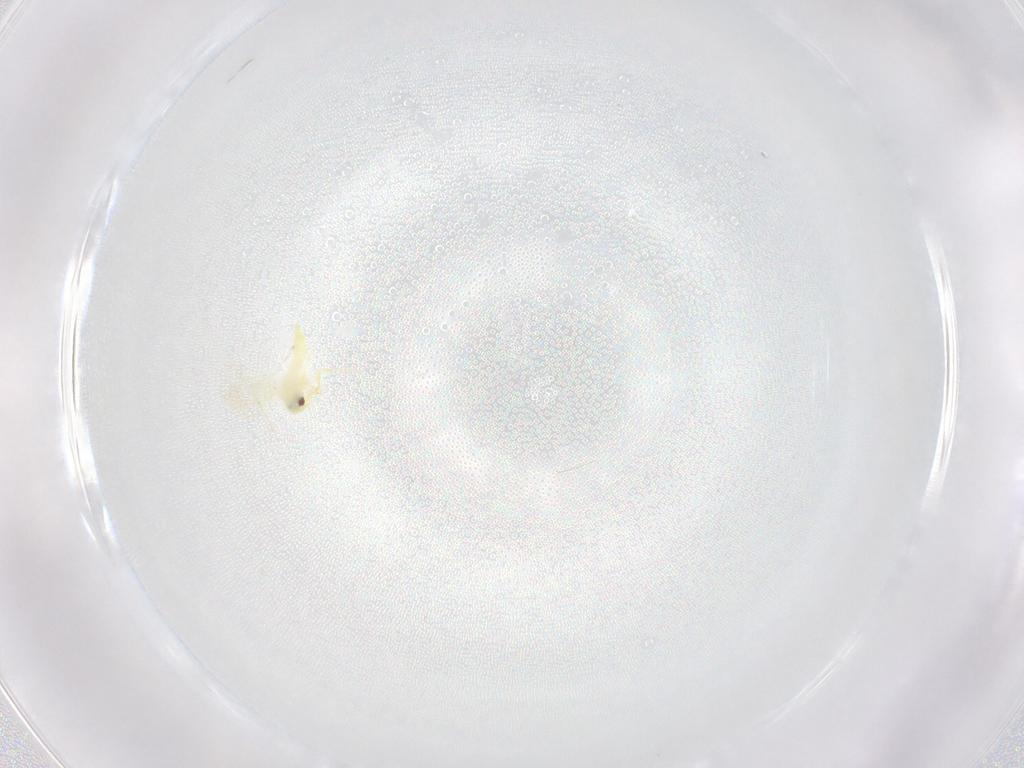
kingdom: Animalia
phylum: Arthropoda
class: Insecta
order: Hemiptera
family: Aleyrodidae
